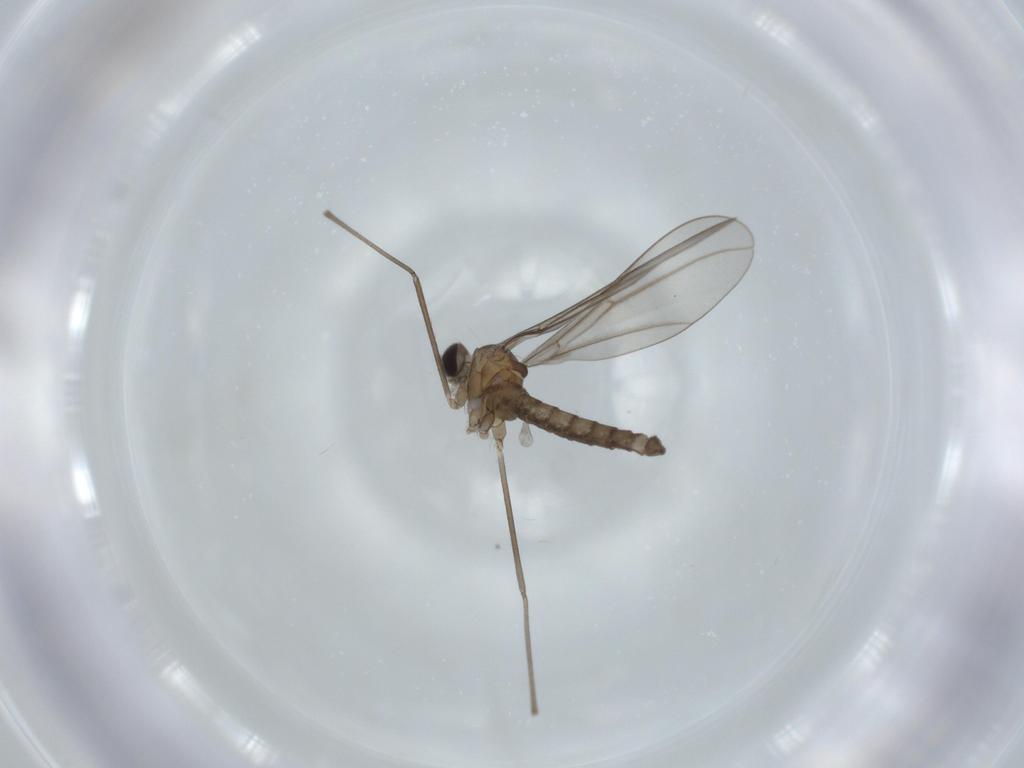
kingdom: Animalia
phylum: Arthropoda
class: Insecta
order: Diptera
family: Cecidomyiidae
